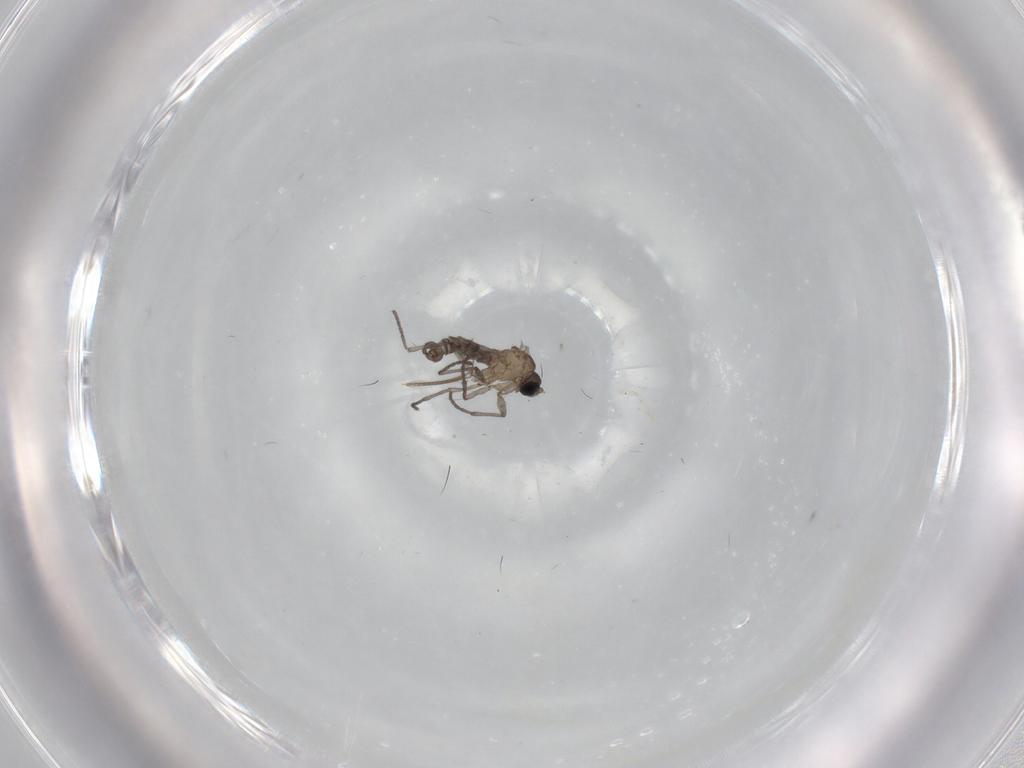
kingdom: Animalia
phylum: Arthropoda
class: Insecta
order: Diptera
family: Sciaridae
